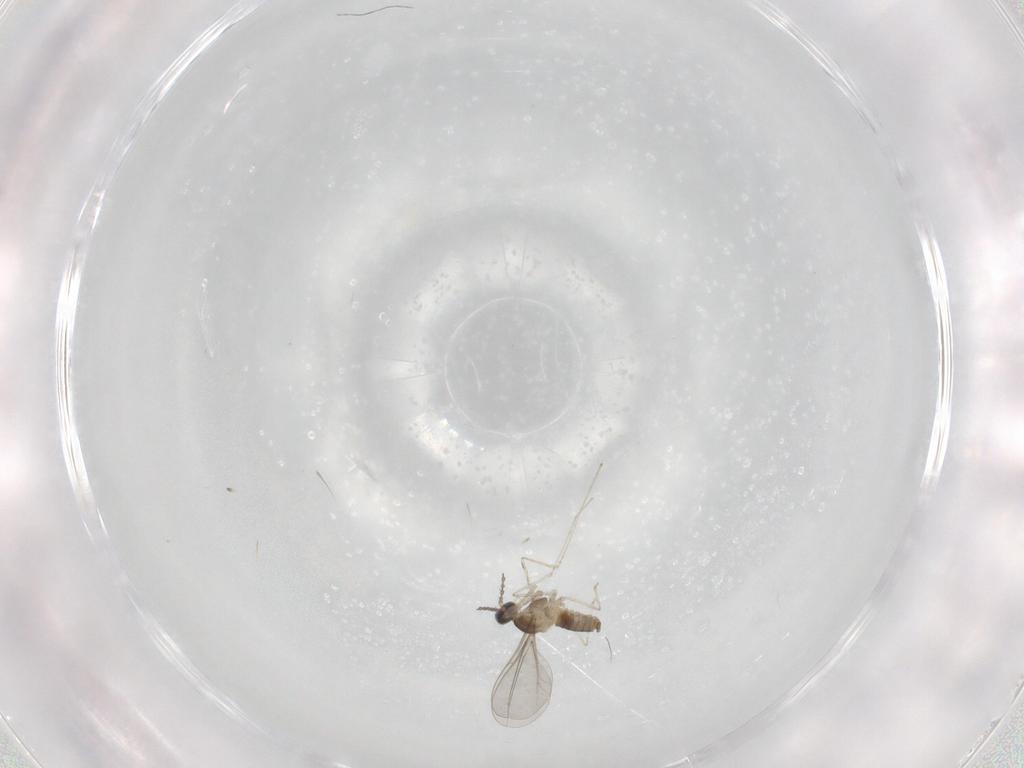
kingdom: Animalia
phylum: Arthropoda
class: Insecta
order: Diptera
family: Cecidomyiidae
